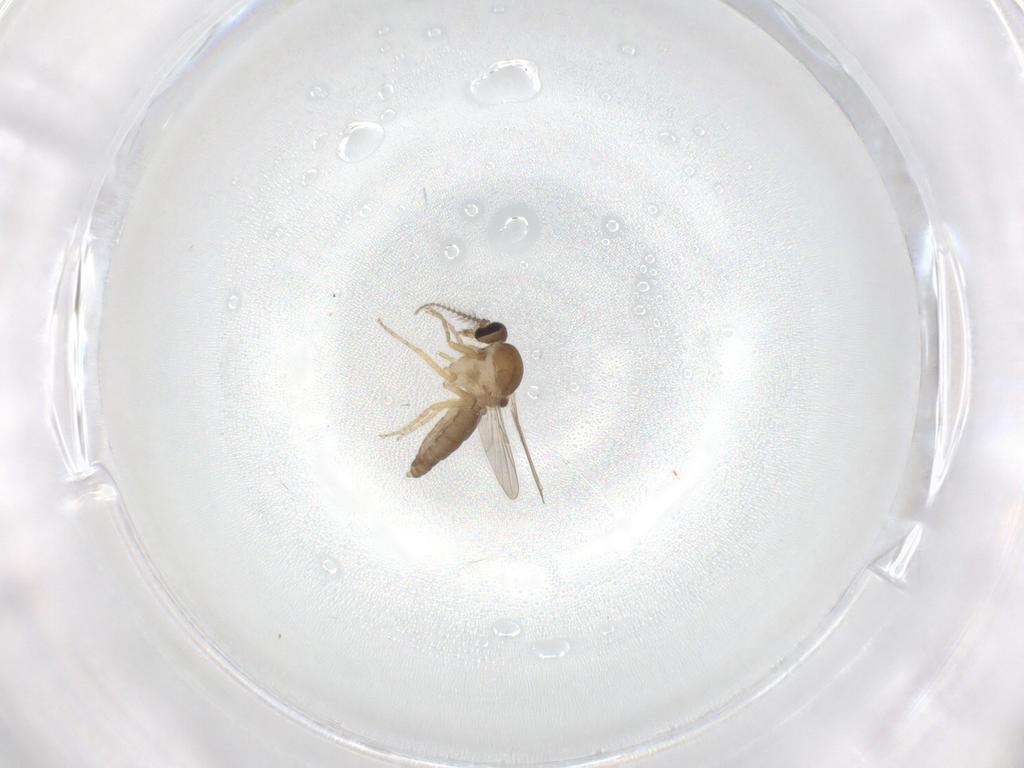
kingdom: Animalia
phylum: Arthropoda
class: Insecta
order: Diptera
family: Ceratopogonidae
